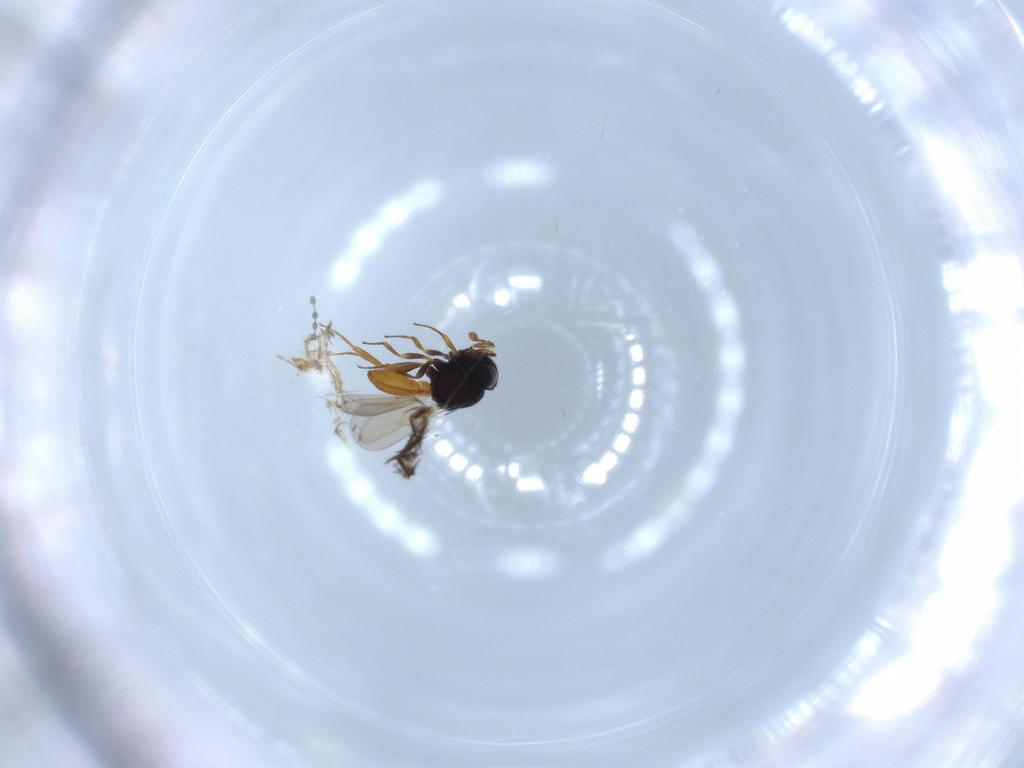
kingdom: Animalia
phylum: Arthropoda
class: Insecta
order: Hymenoptera
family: Scelionidae
